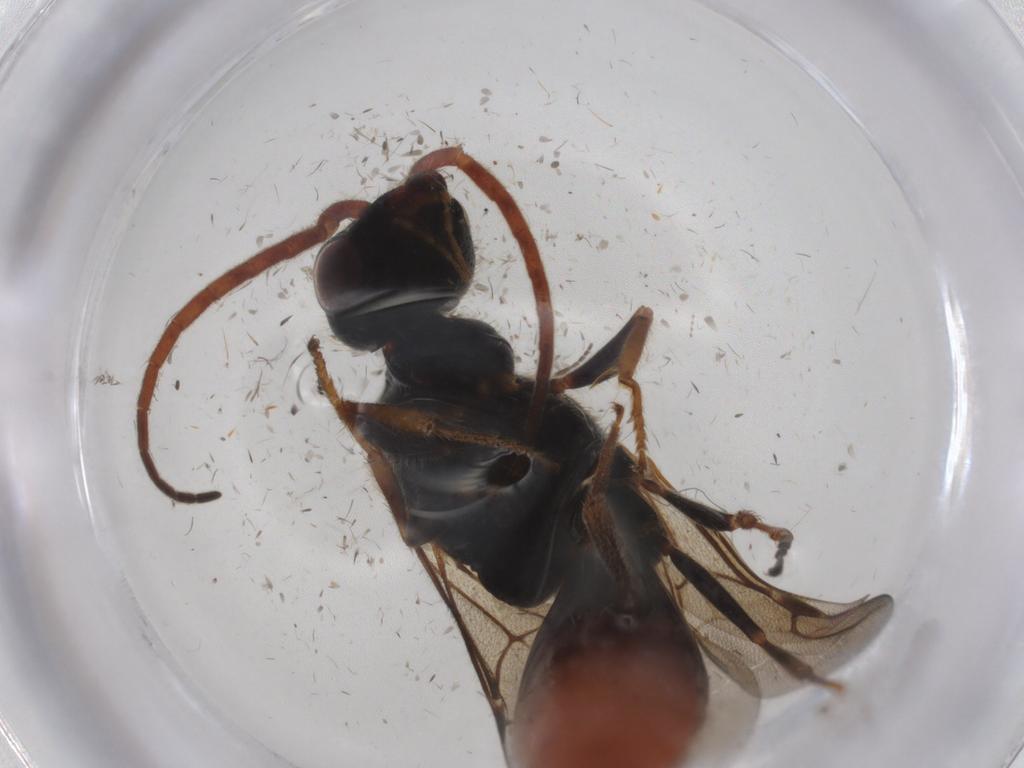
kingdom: Animalia
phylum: Arthropoda
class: Insecta
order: Hymenoptera
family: Bethylidae
